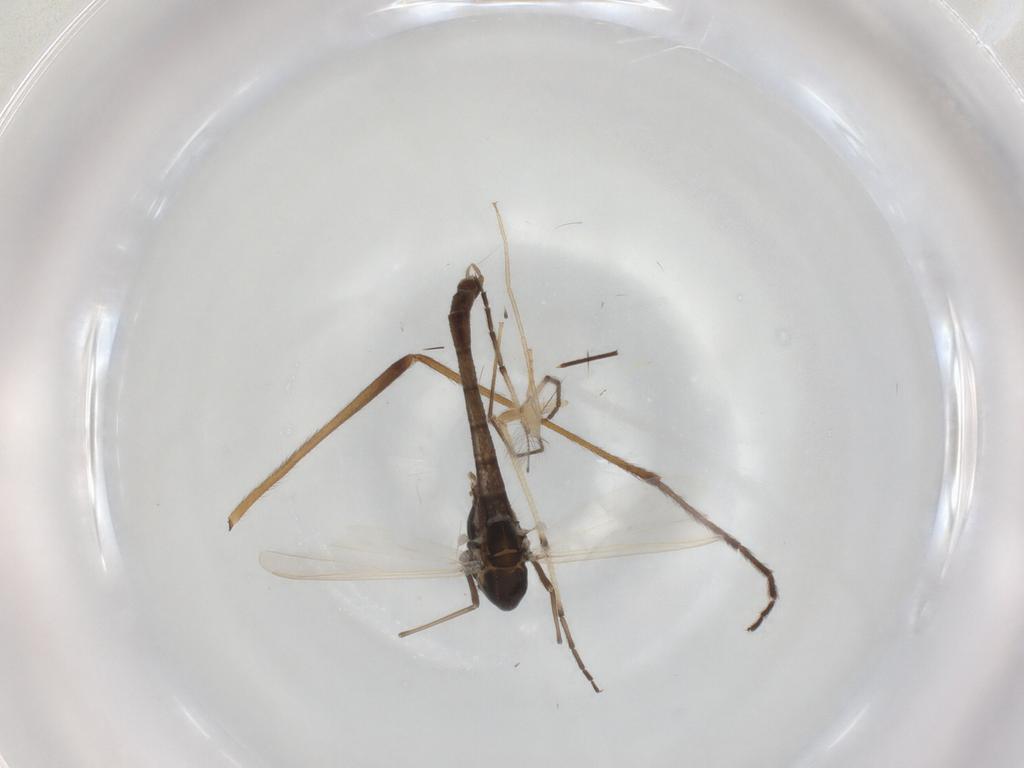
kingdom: Animalia
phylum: Arthropoda
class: Insecta
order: Diptera
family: Chironomidae
